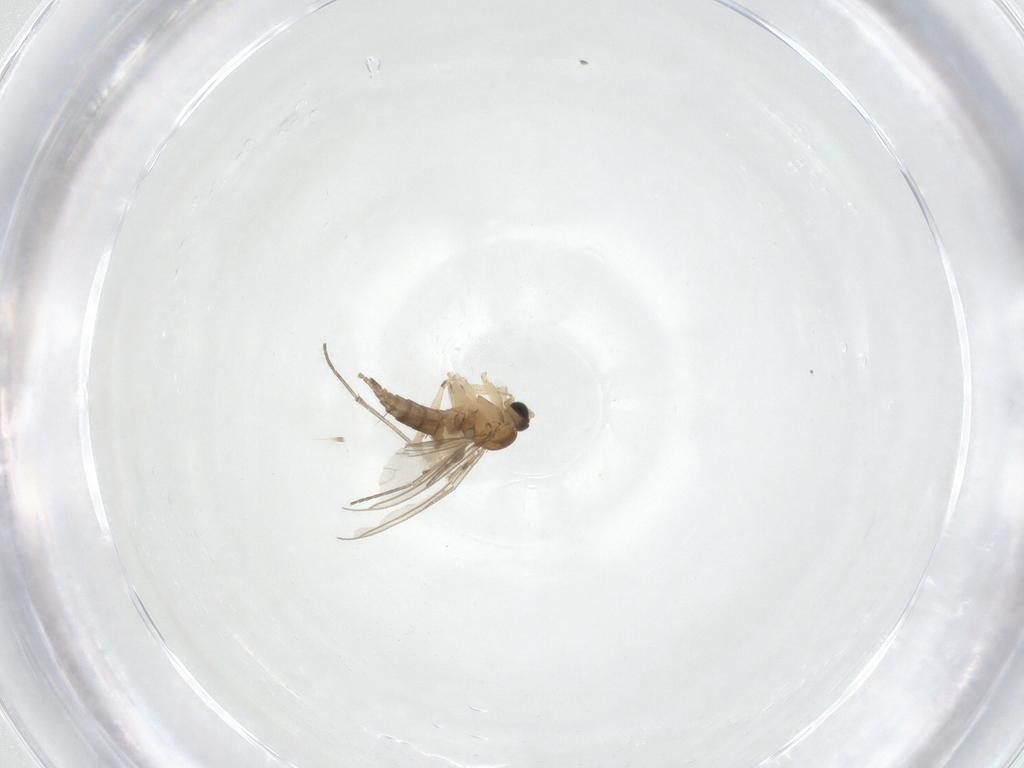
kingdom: Animalia
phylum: Arthropoda
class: Insecta
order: Diptera
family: Sciaridae
